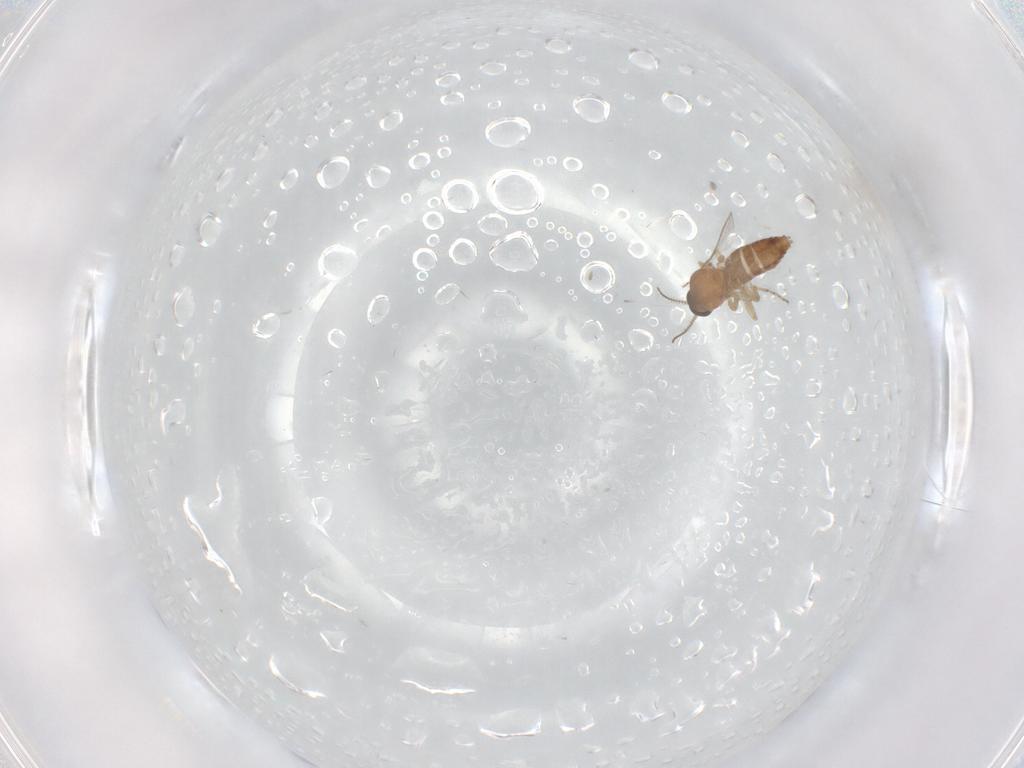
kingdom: Animalia
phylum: Arthropoda
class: Insecta
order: Diptera
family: Ceratopogonidae
